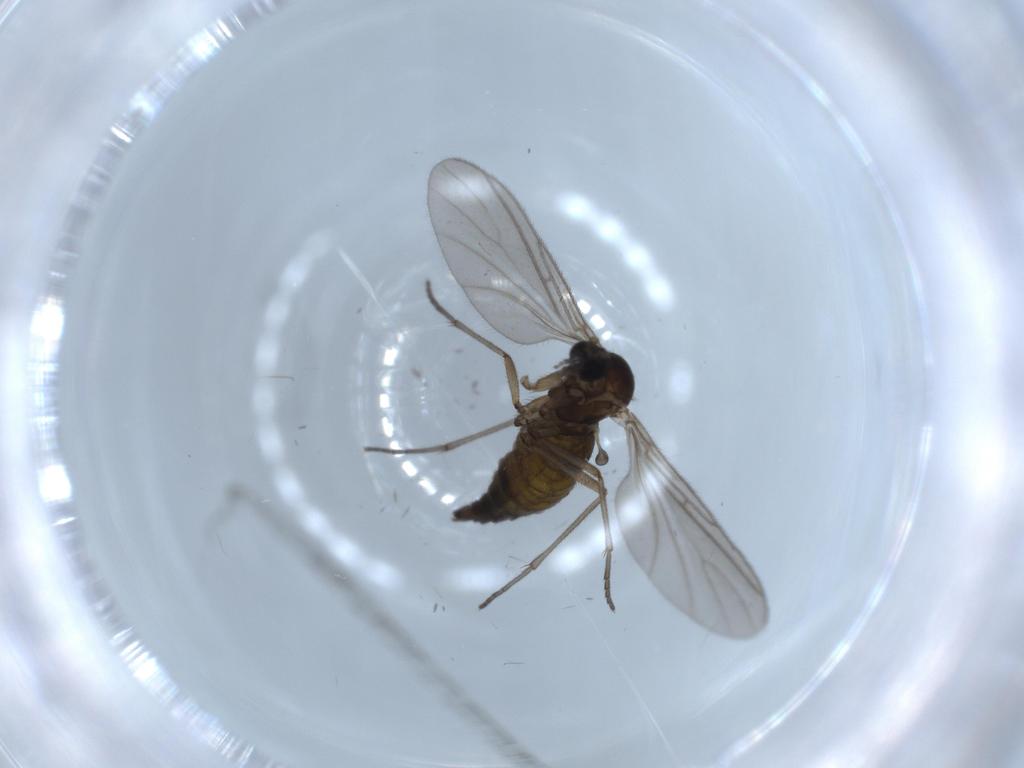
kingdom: Animalia
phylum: Arthropoda
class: Insecta
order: Diptera
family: Sciaridae
